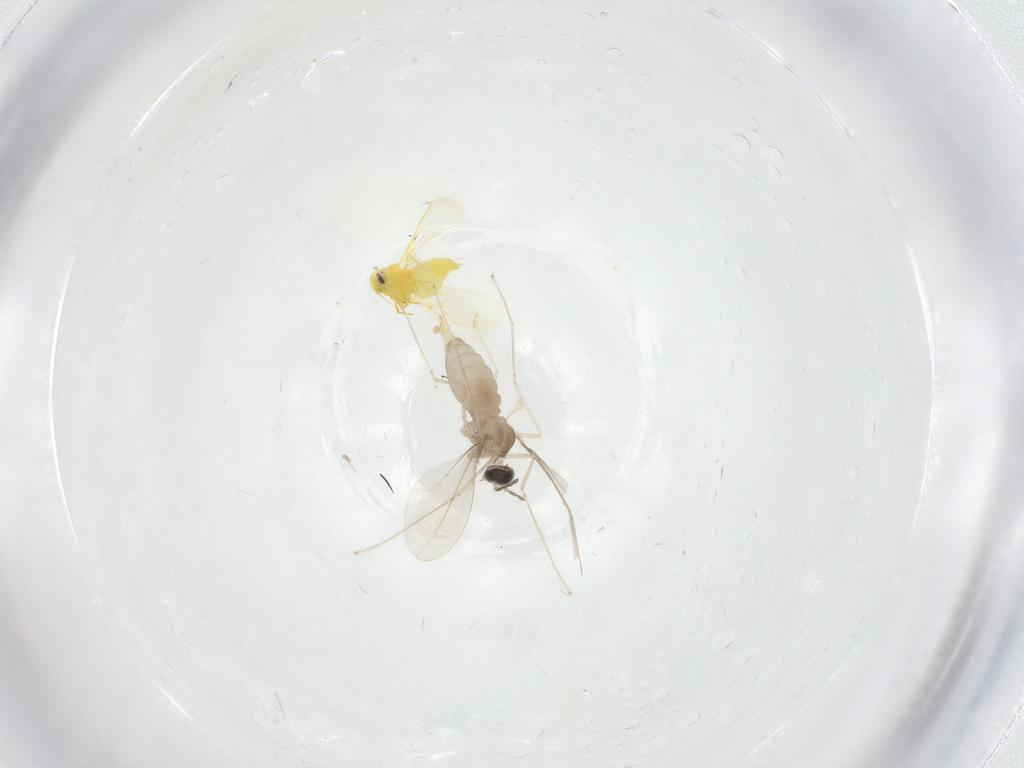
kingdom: Animalia
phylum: Arthropoda
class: Insecta
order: Diptera
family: Cecidomyiidae
